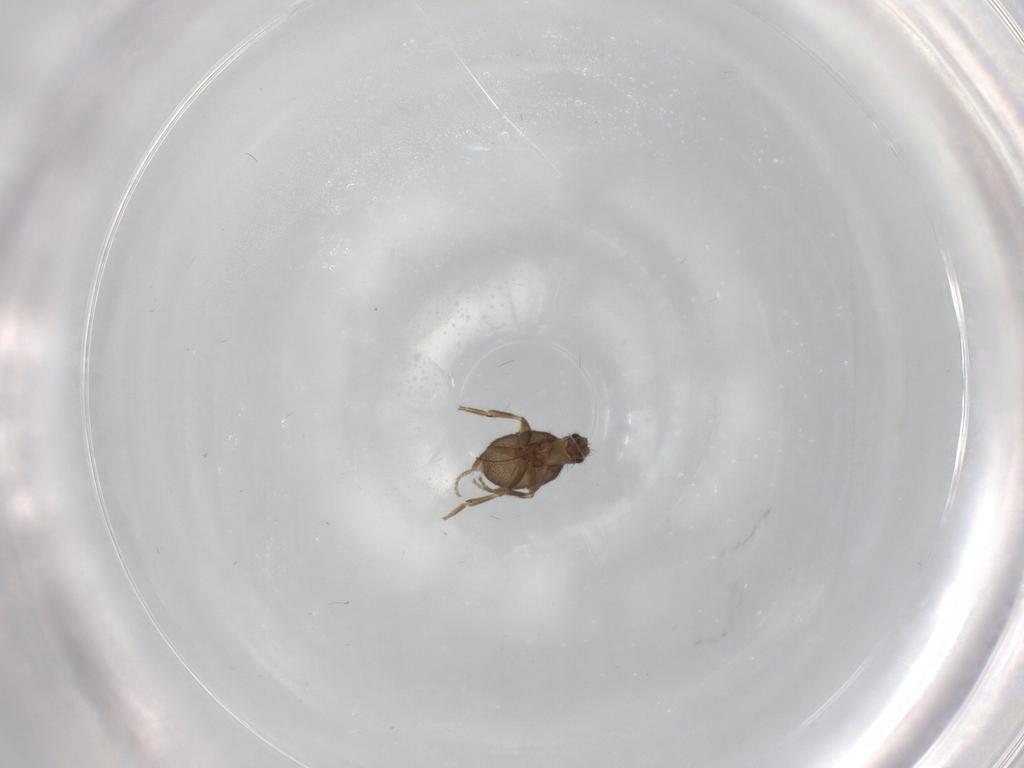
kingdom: Animalia
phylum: Arthropoda
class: Insecta
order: Diptera
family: Phoridae
